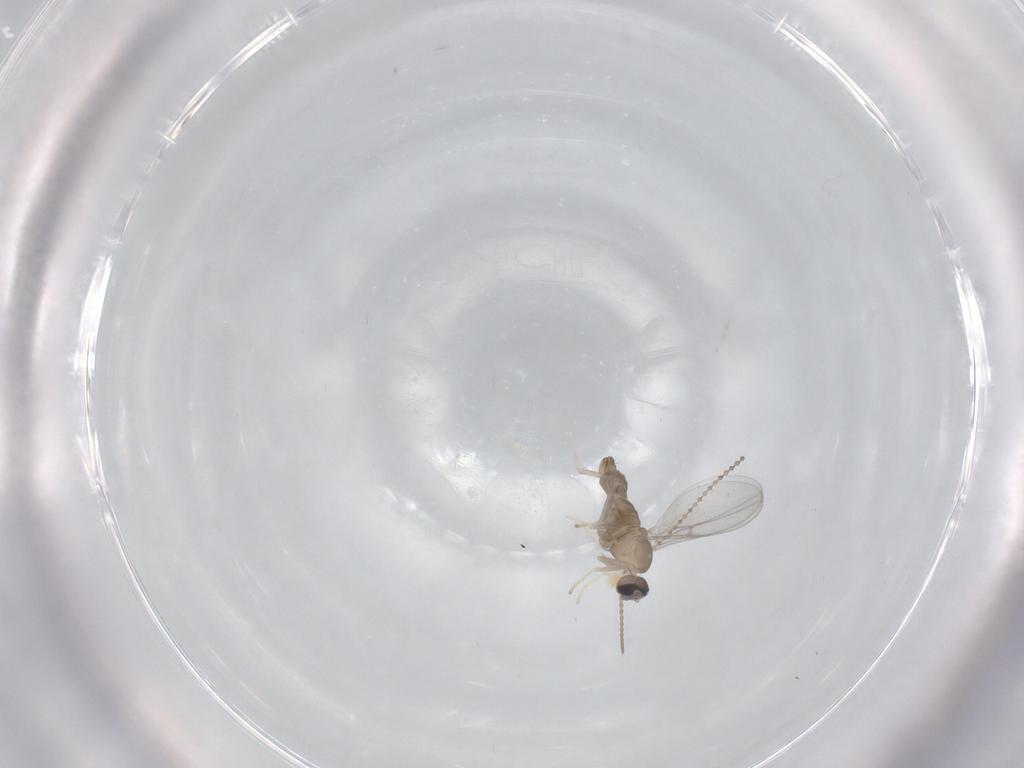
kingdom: Animalia
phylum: Arthropoda
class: Insecta
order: Diptera
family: Cecidomyiidae
